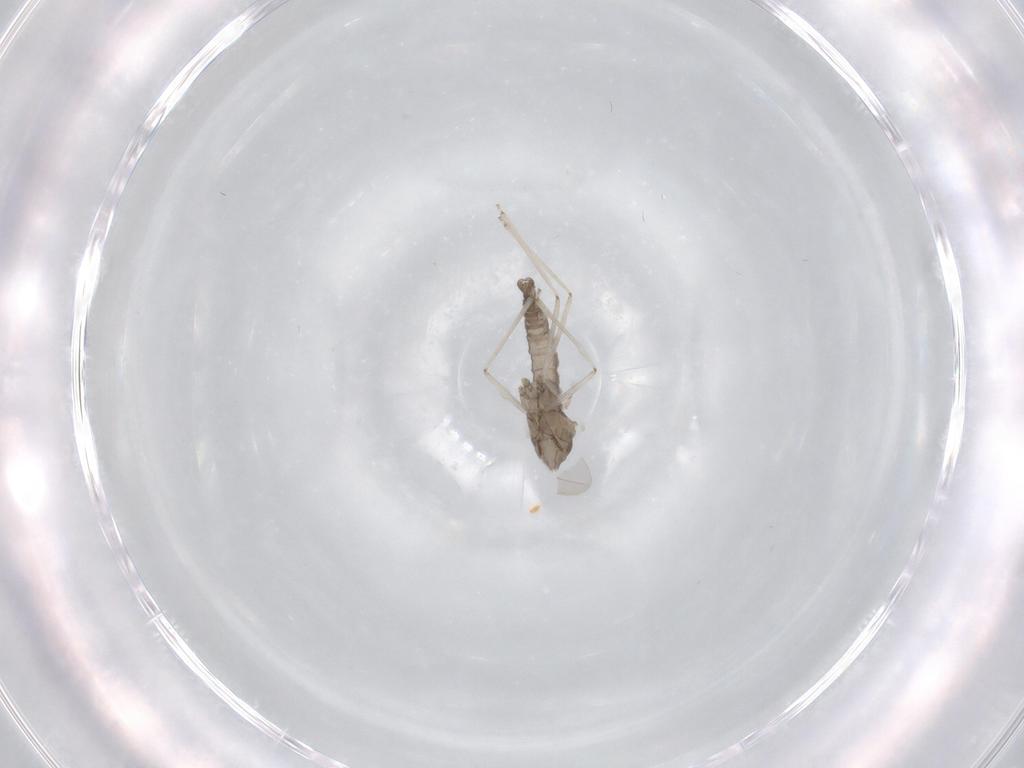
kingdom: Animalia
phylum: Arthropoda
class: Insecta
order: Diptera
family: Cecidomyiidae
